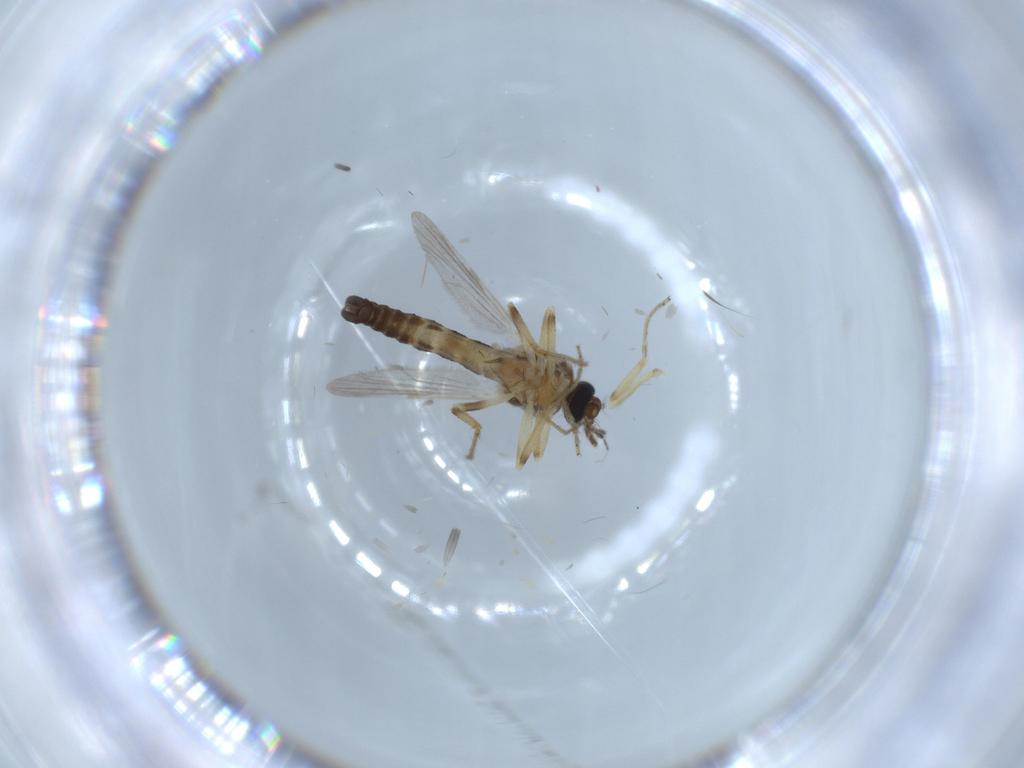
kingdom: Animalia
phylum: Arthropoda
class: Insecta
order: Diptera
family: Ceratopogonidae
